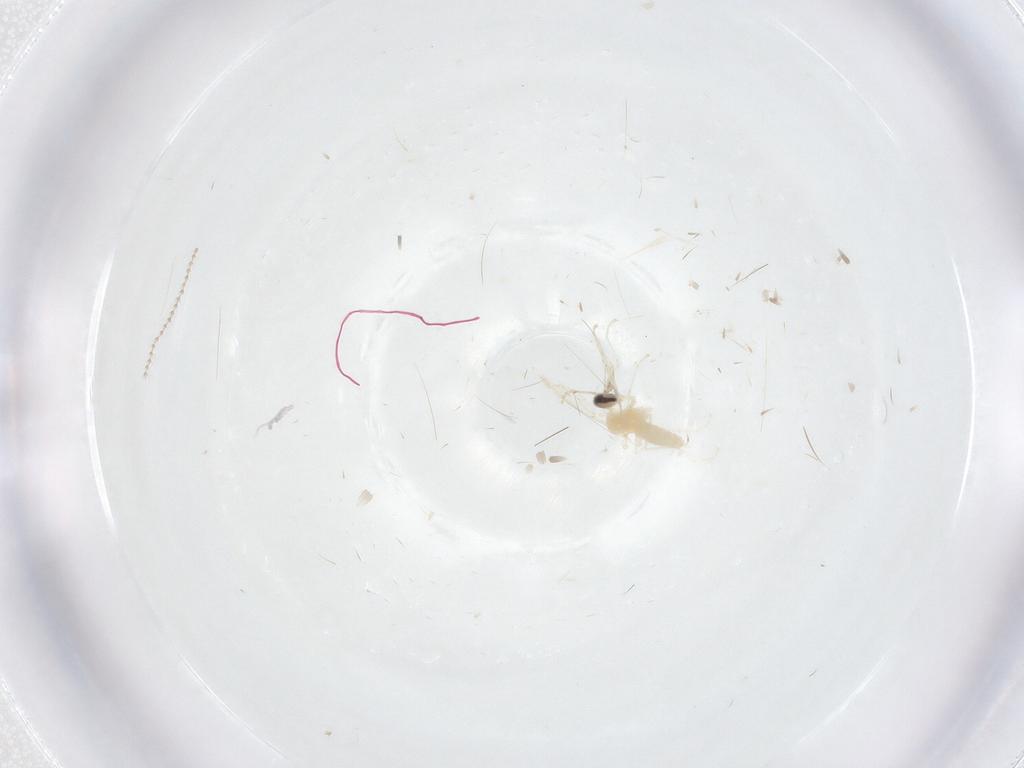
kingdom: Animalia
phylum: Arthropoda
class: Insecta
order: Diptera
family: Cecidomyiidae
